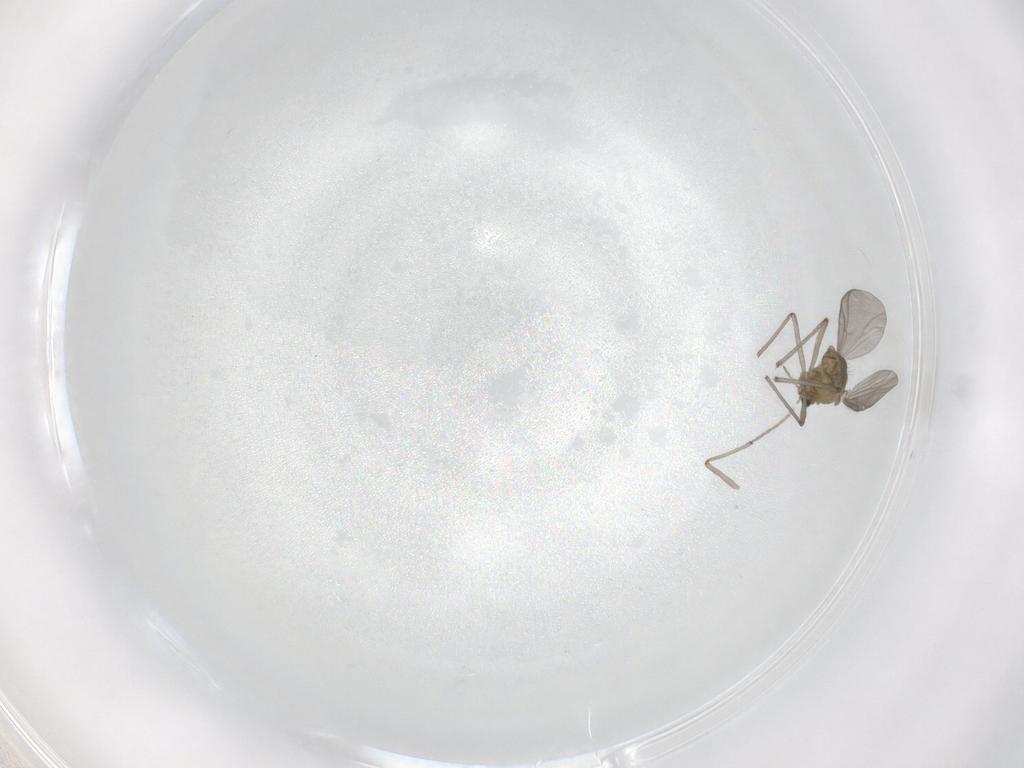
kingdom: Animalia
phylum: Arthropoda
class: Insecta
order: Diptera
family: Chironomidae
